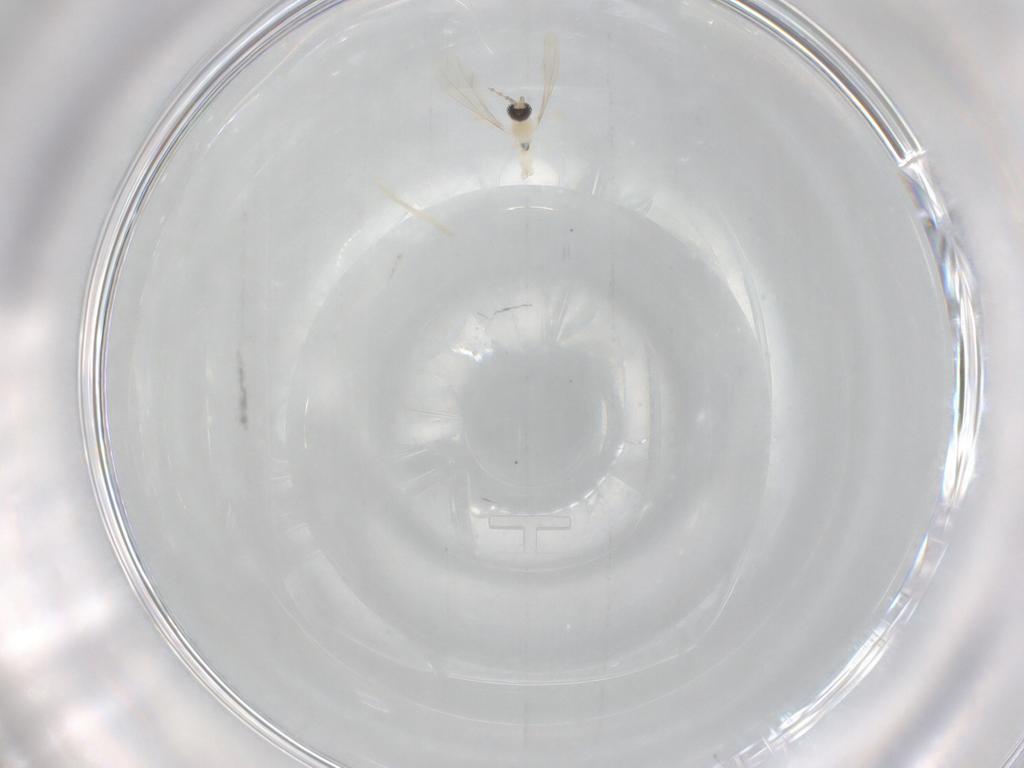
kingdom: Animalia
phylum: Arthropoda
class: Insecta
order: Diptera
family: Cecidomyiidae
